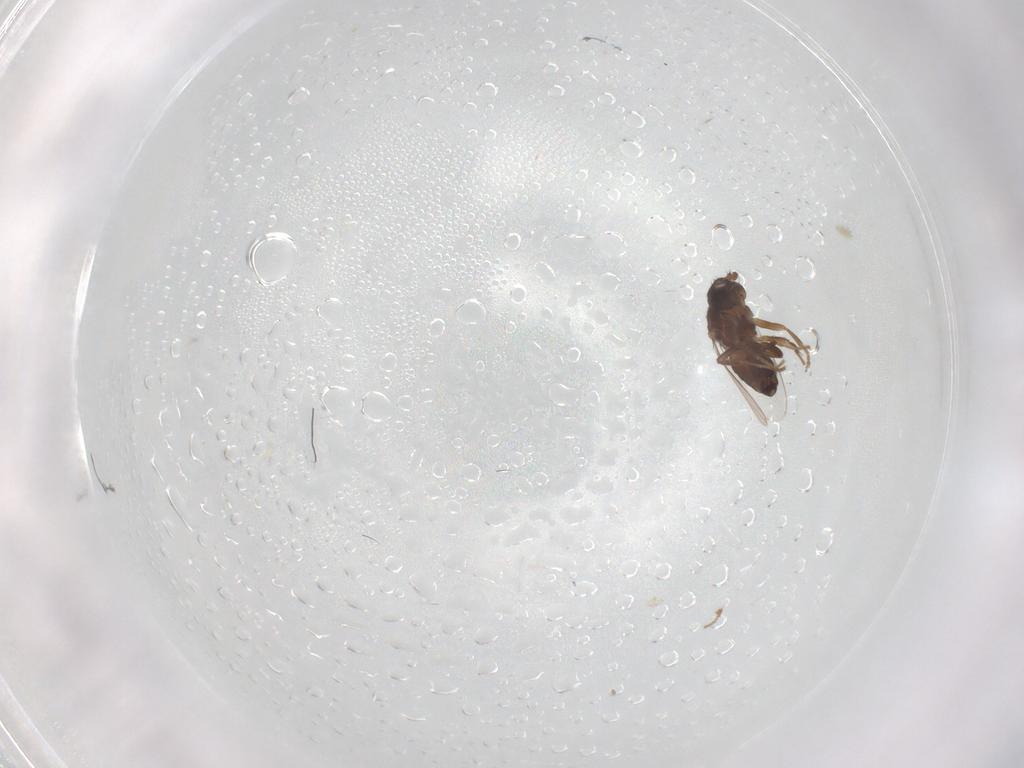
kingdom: Animalia
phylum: Arthropoda
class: Insecta
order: Diptera
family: Sphaeroceridae
